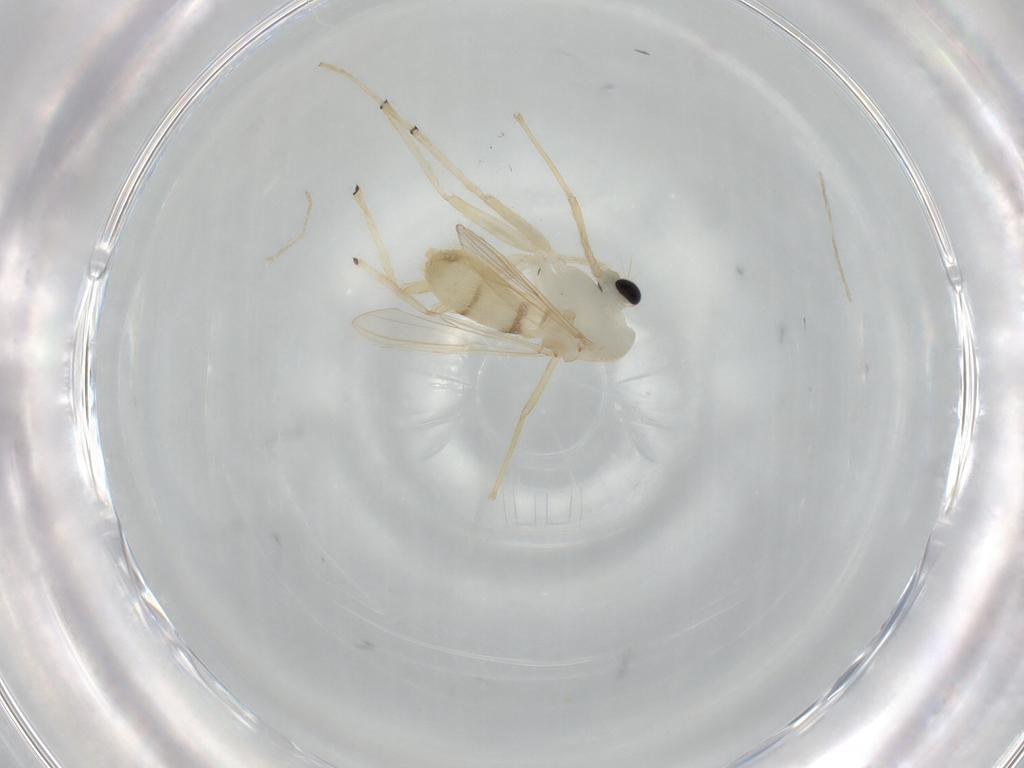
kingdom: Animalia
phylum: Arthropoda
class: Insecta
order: Diptera
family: Chironomidae
